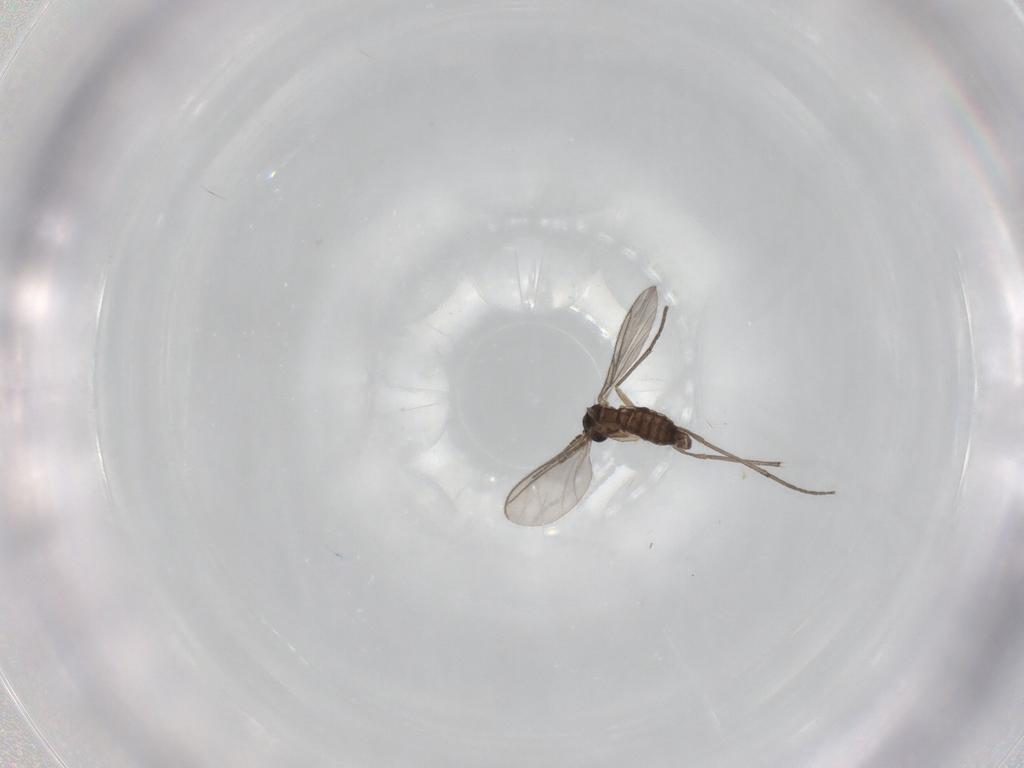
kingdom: Animalia
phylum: Arthropoda
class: Insecta
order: Diptera
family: Sciaridae
